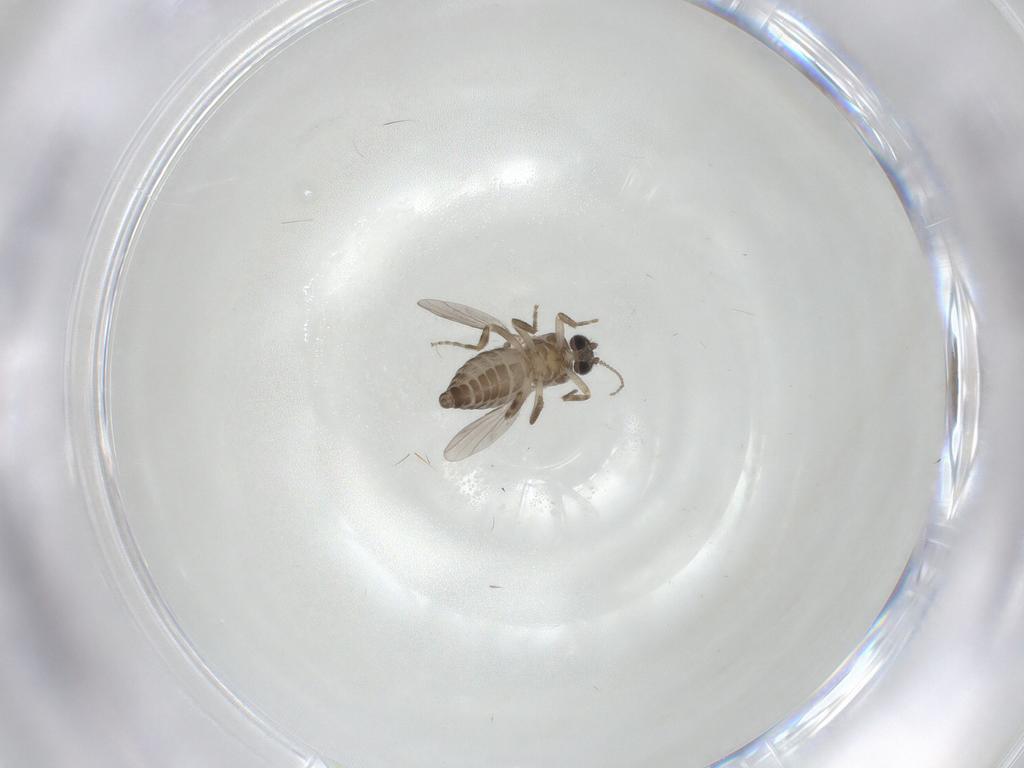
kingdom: Animalia
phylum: Arthropoda
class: Insecta
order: Diptera
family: Ceratopogonidae
